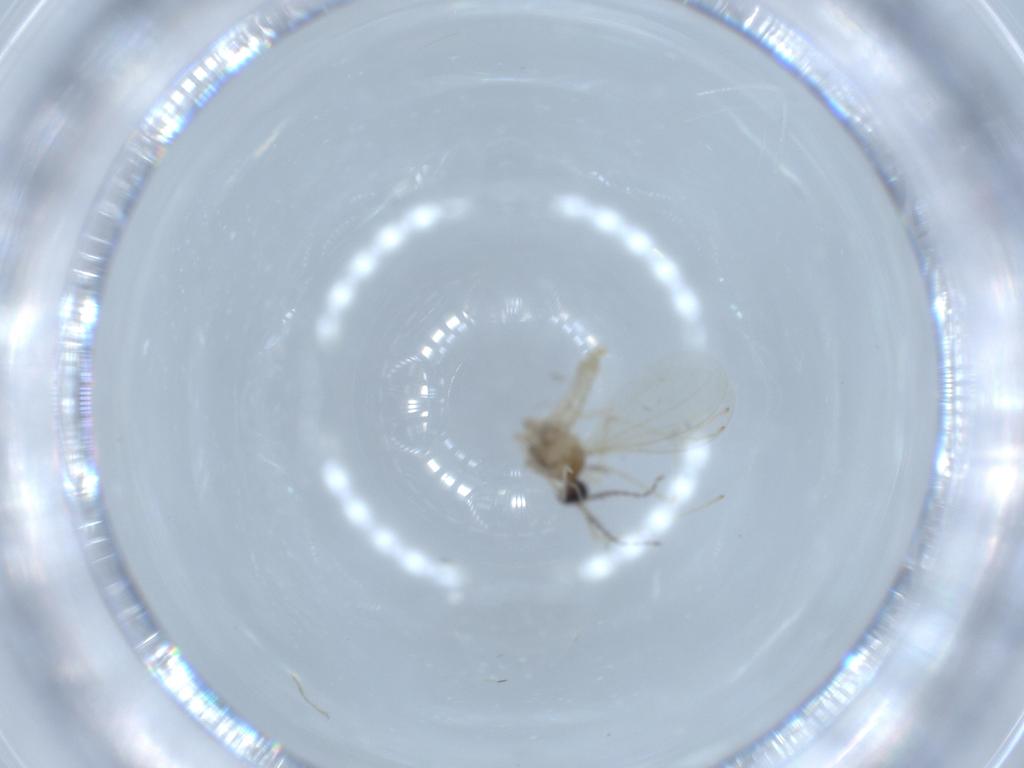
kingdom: Animalia
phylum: Arthropoda
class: Insecta
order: Diptera
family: Cecidomyiidae
